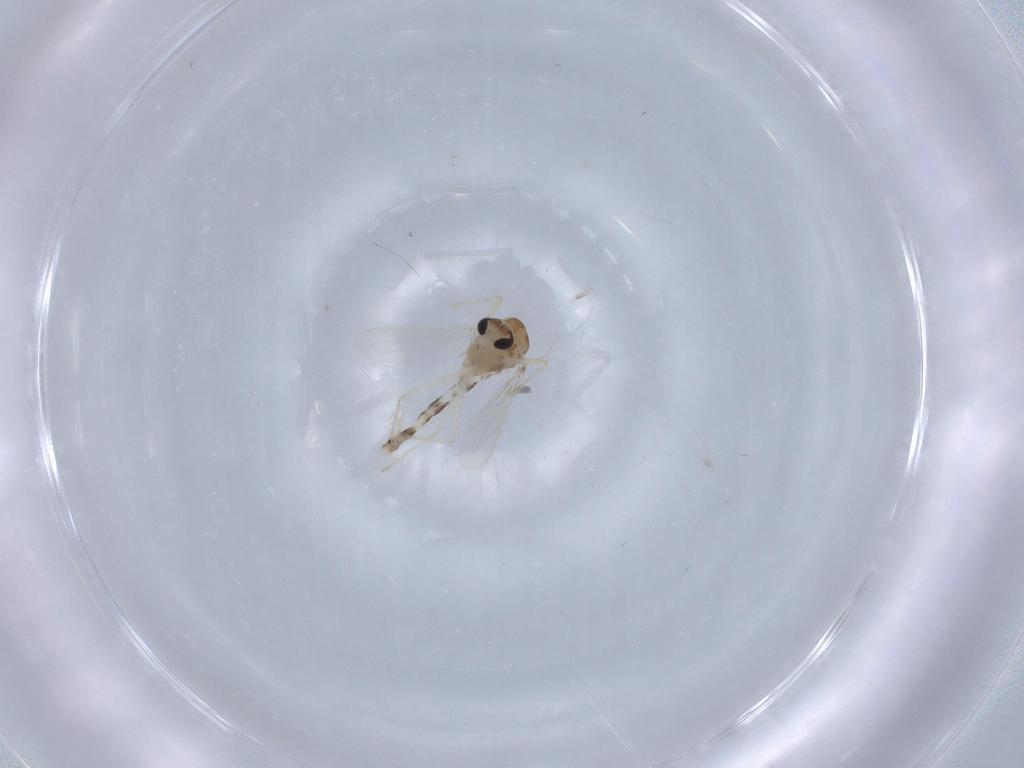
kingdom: Animalia
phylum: Arthropoda
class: Insecta
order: Diptera
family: Chironomidae
